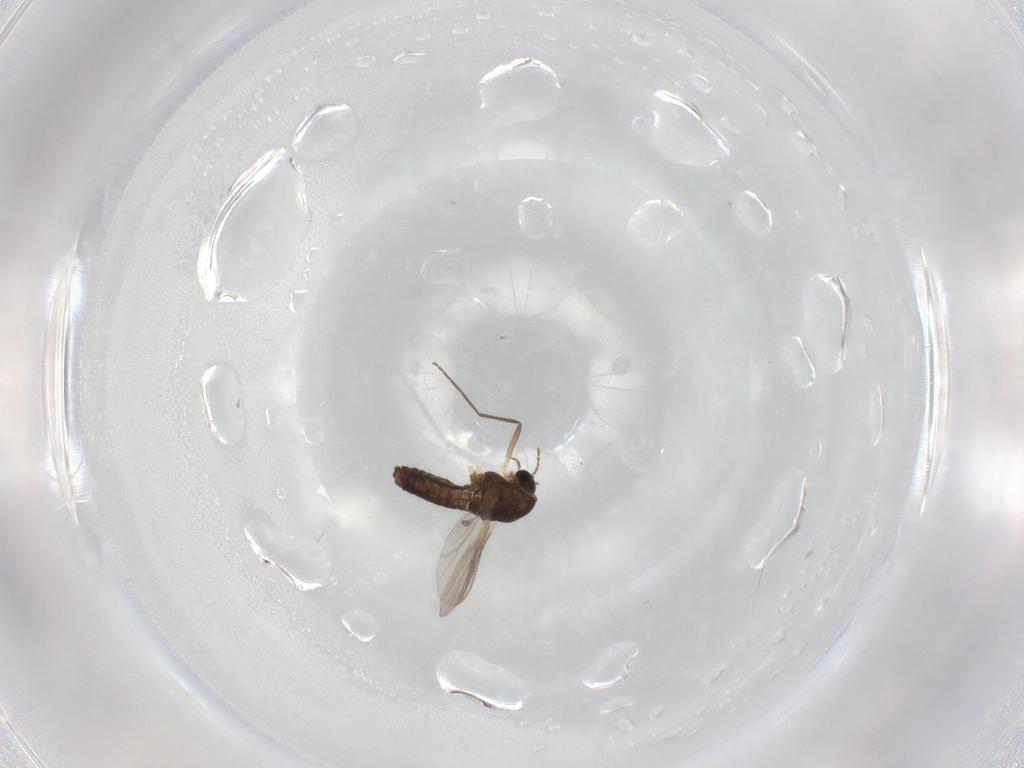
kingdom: Animalia
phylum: Arthropoda
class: Insecta
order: Diptera
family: Chironomidae
